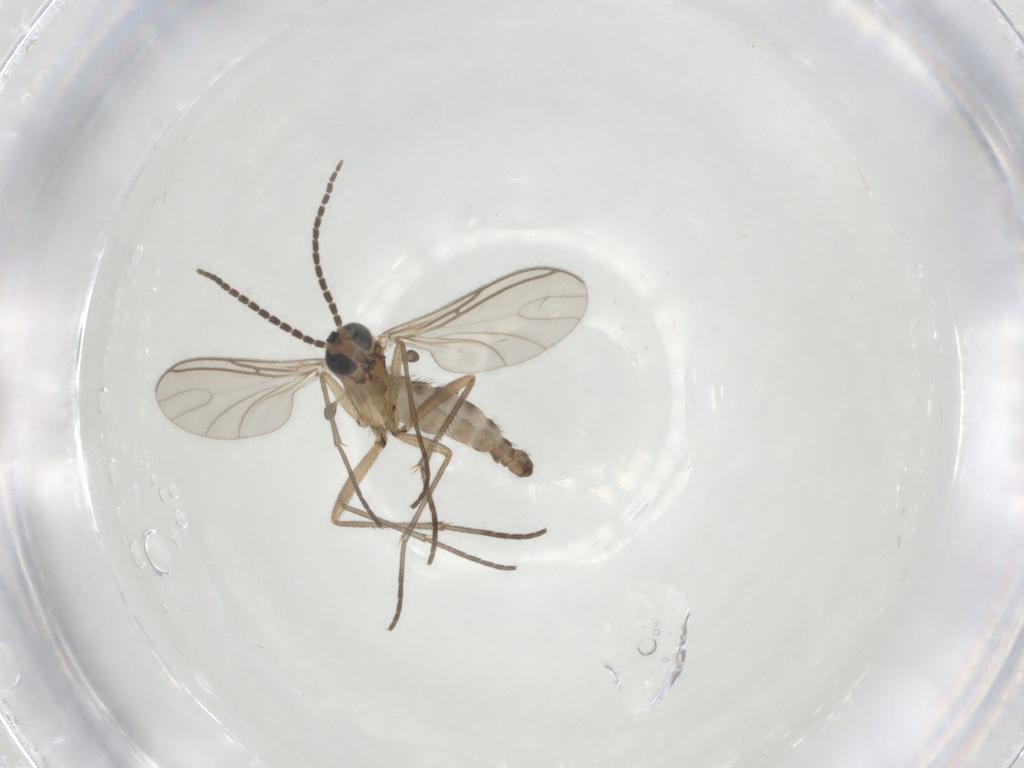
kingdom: Animalia
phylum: Arthropoda
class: Insecta
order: Diptera
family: Sciaridae
